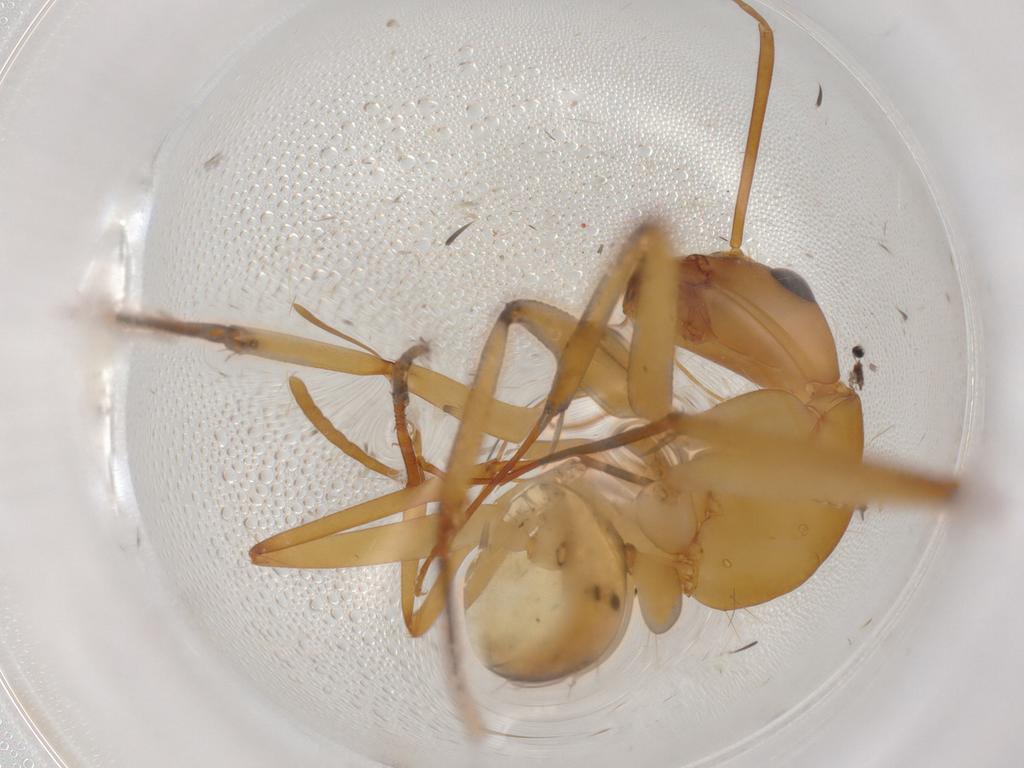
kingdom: Animalia
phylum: Arthropoda
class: Insecta
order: Hymenoptera
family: Formicidae
